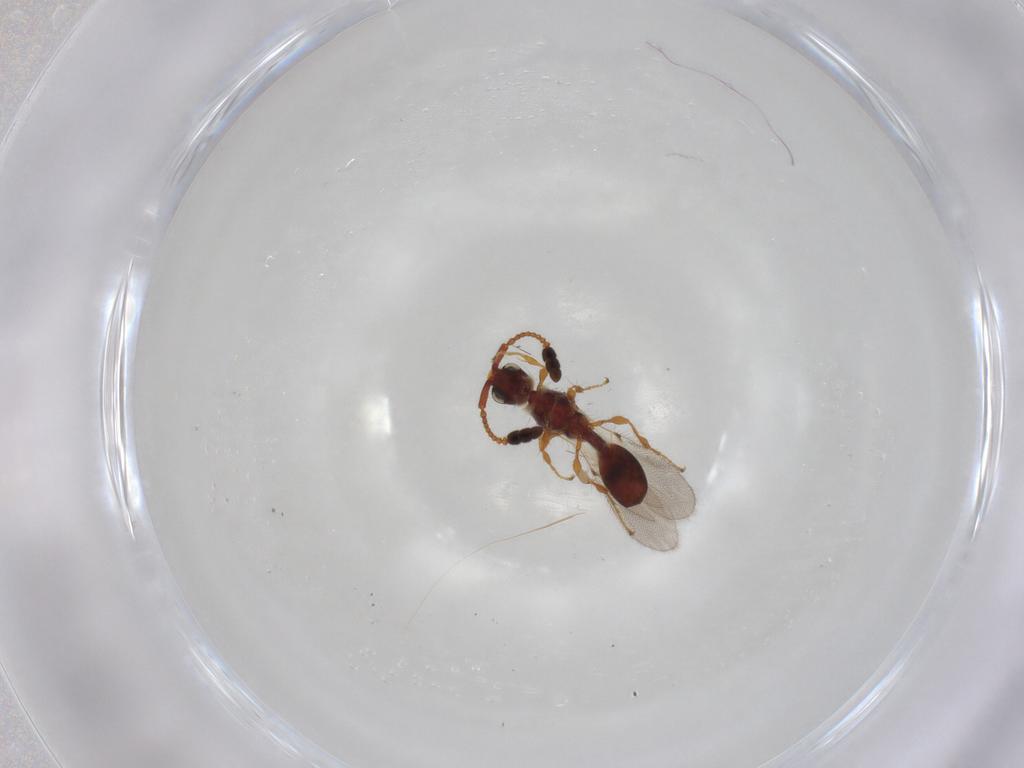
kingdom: Animalia
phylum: Arthropoda
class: Insecta
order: Hymenoptera
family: Diapriidae
